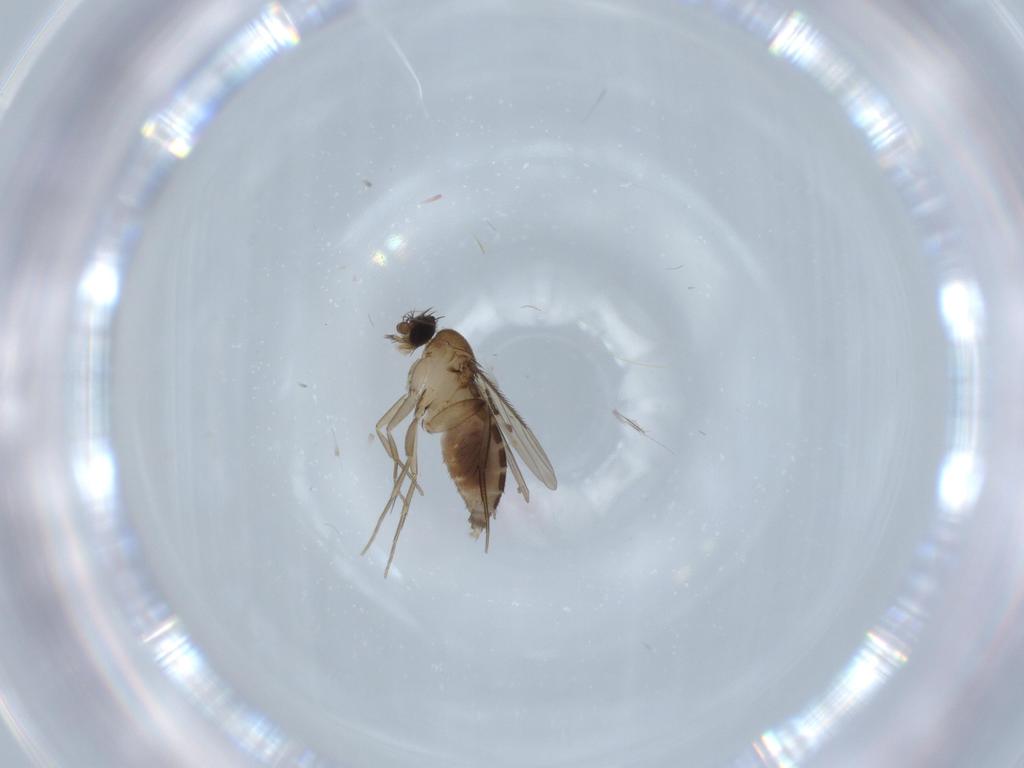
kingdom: Animalia
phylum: Arthropoda
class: Insecta
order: Diptera
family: Phoridae
